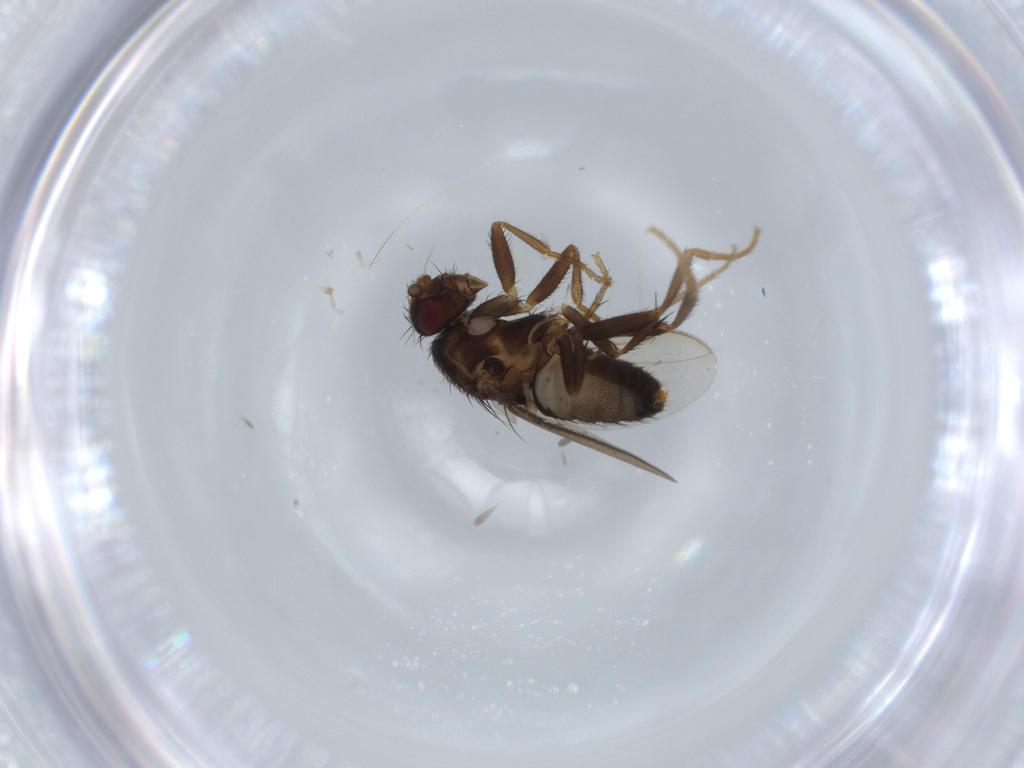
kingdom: Animalia
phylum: Arthropoda
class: Insecta
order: Diptera
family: Sphaeroceridae
